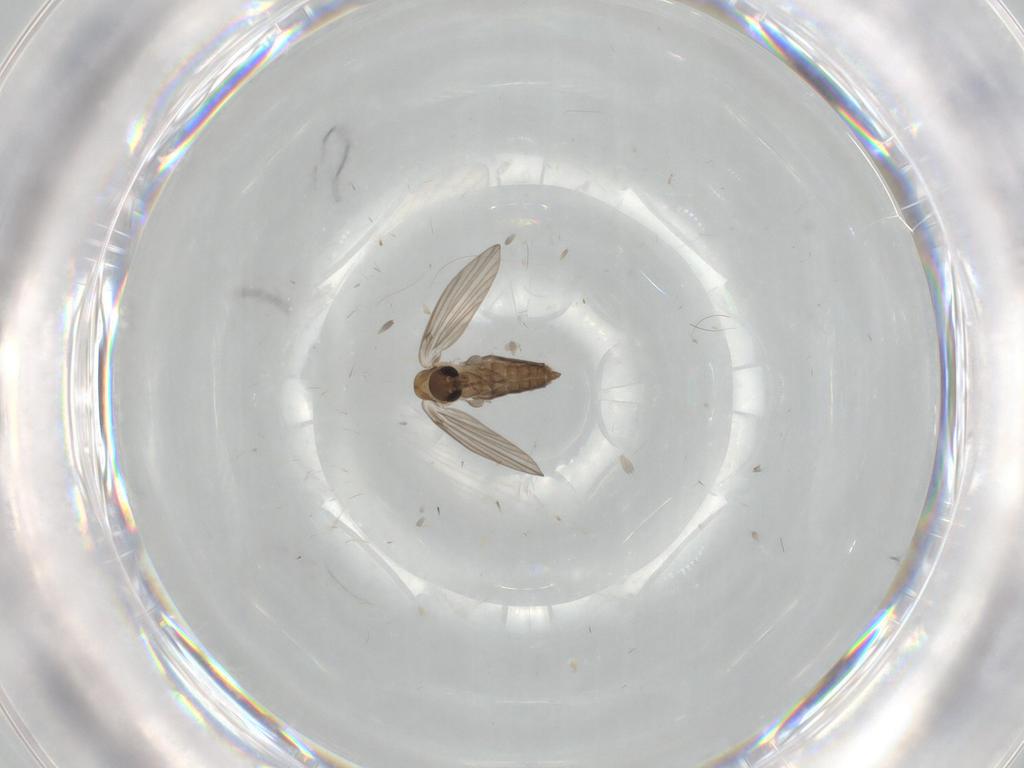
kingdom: Animalia
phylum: Arthropoda
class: Insecta
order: Diptera
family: Psychodidae
